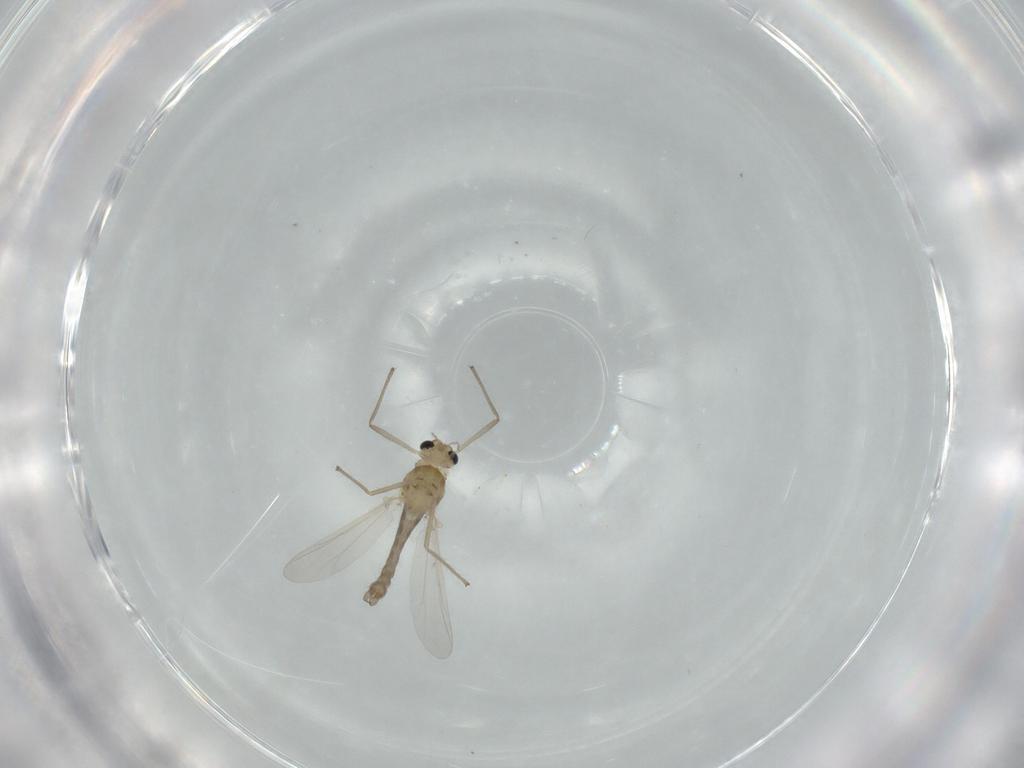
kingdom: Animalia
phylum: Arthropoda
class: Insecta
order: Diptera
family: Chironomidae
